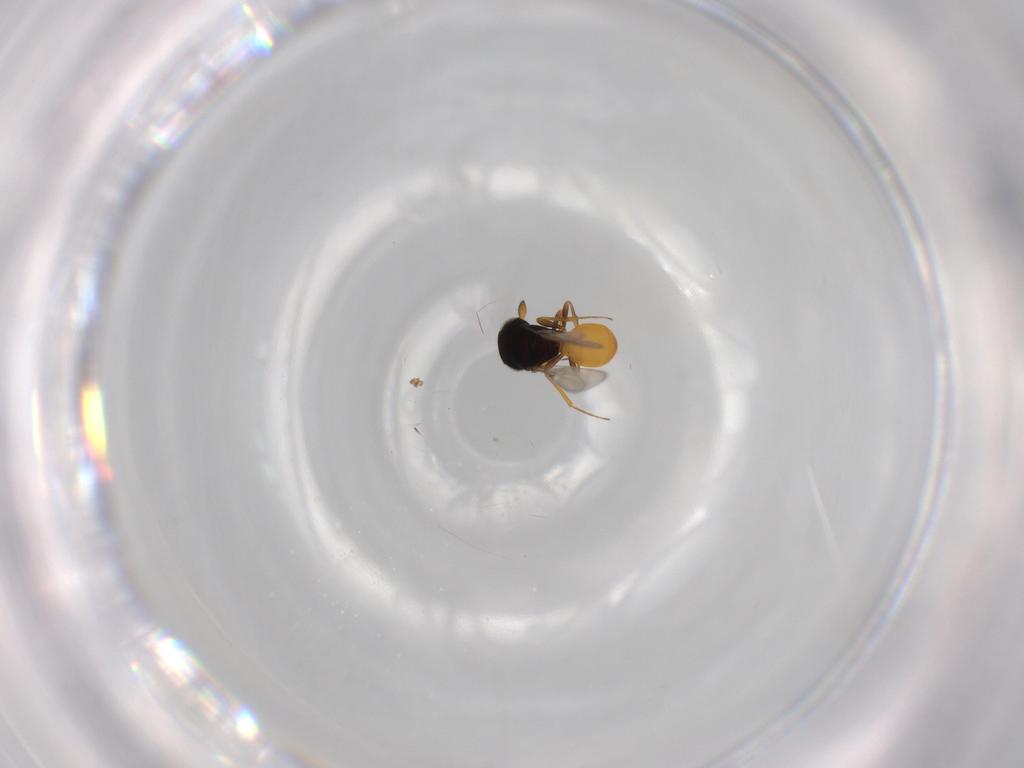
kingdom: Animalia
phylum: Arthropoda
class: Insecta
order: Hymenoptera
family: Scelionidae
